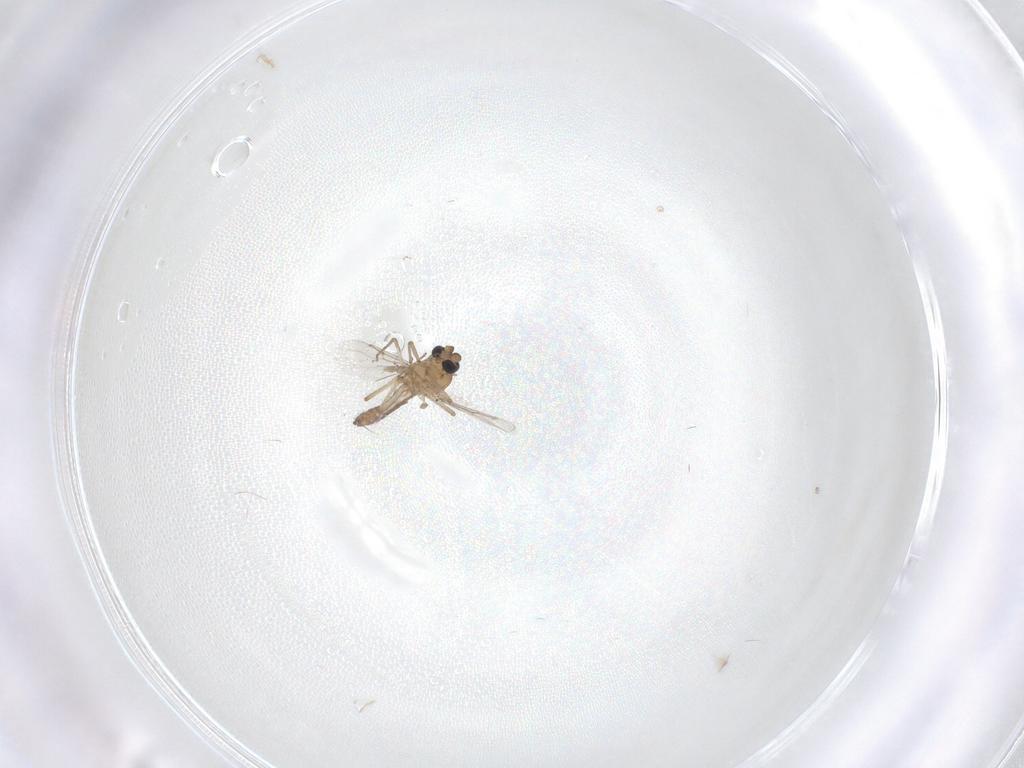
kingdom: Animalia
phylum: Arthropoda
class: Insecta
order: Diptera
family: Ceratopogonidae
